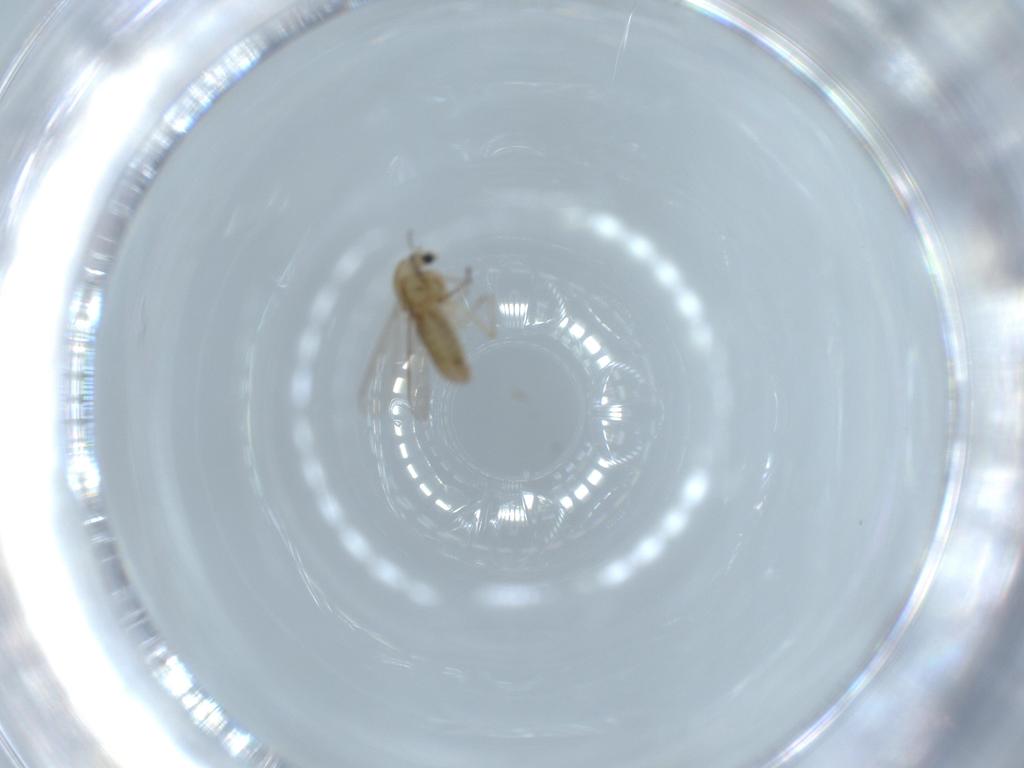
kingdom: Animalia
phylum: Arthropoda
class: Insecta
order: Diptera
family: Chironomidae
